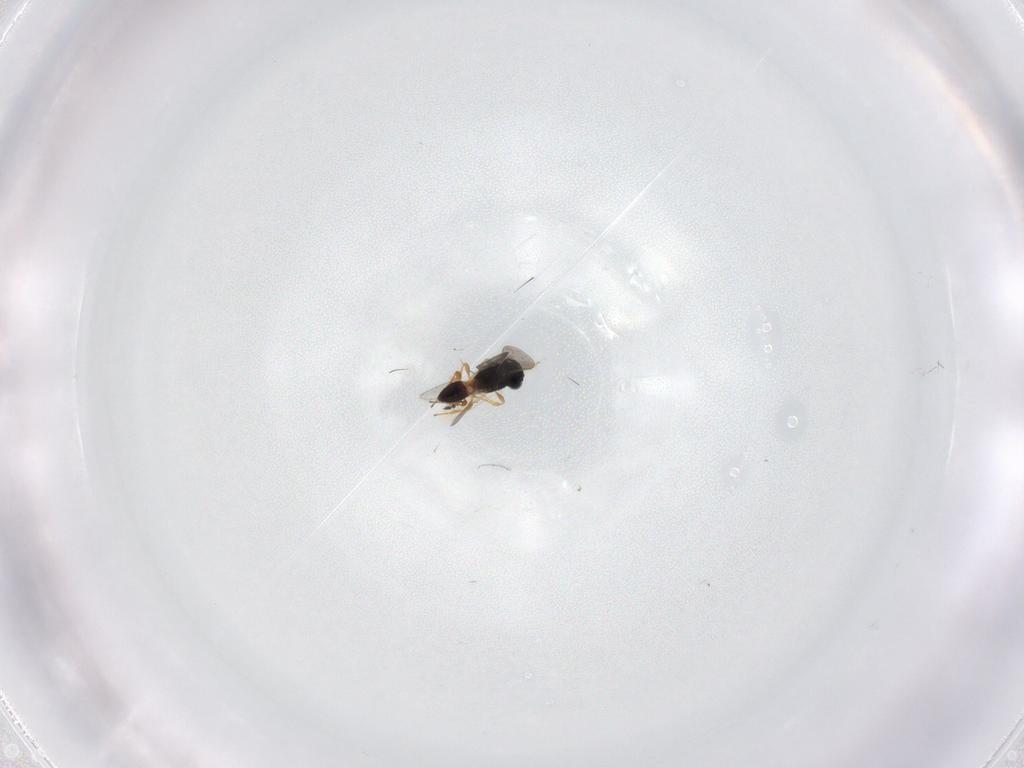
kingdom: Animalia
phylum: Arthropoda
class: Insecta
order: Hymenoptera
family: Platygastridae
